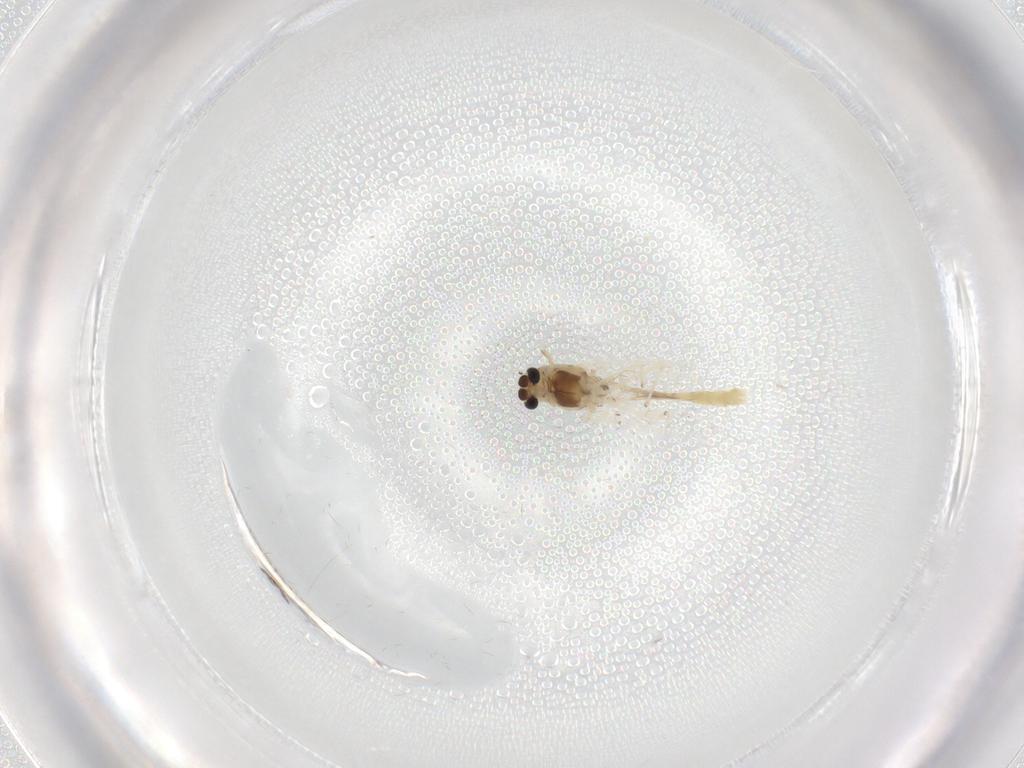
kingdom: Animalia
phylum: Arthropoda
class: Insecta
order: Diptera
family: Chironomidae
